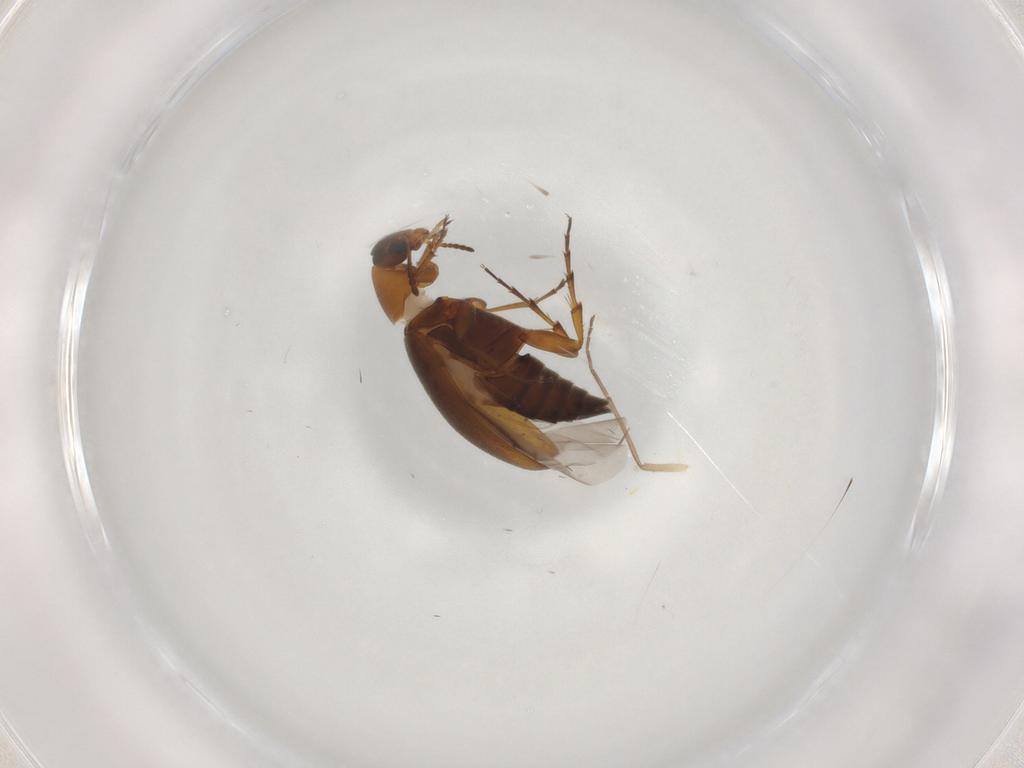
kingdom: Animalia
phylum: Arthropoda
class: Insecta
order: Coleoptera
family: Scraptiidae
